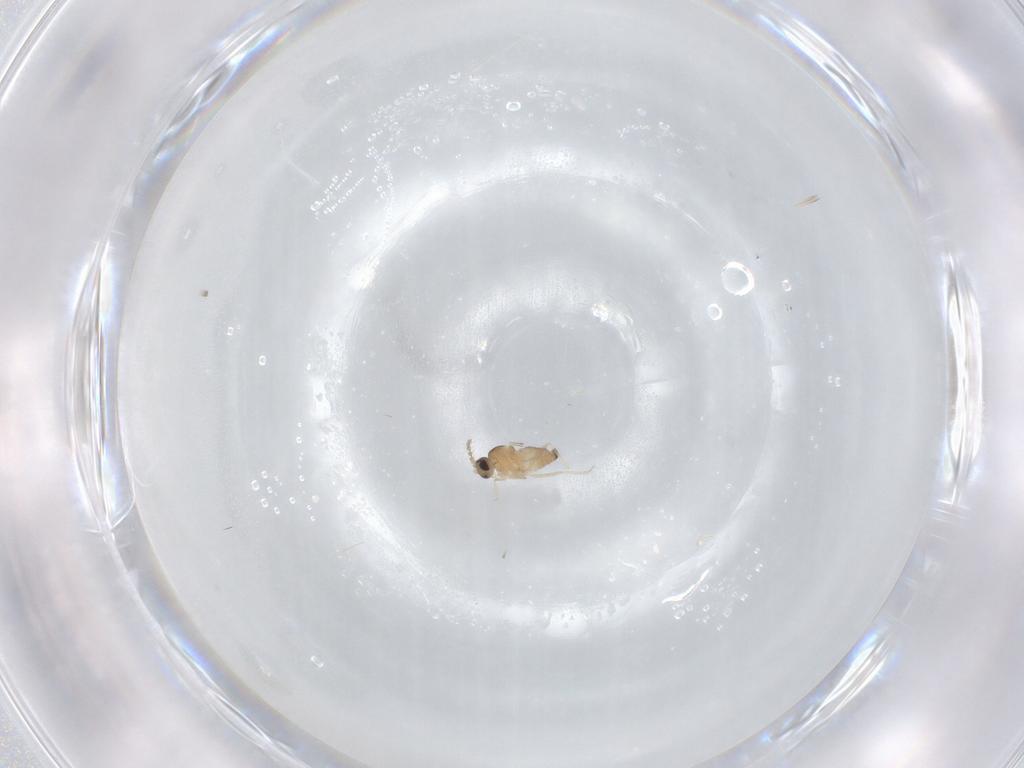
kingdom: Animalia
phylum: Arthropoda
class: Insecta
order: Diptera
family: Cecidomyiidae
